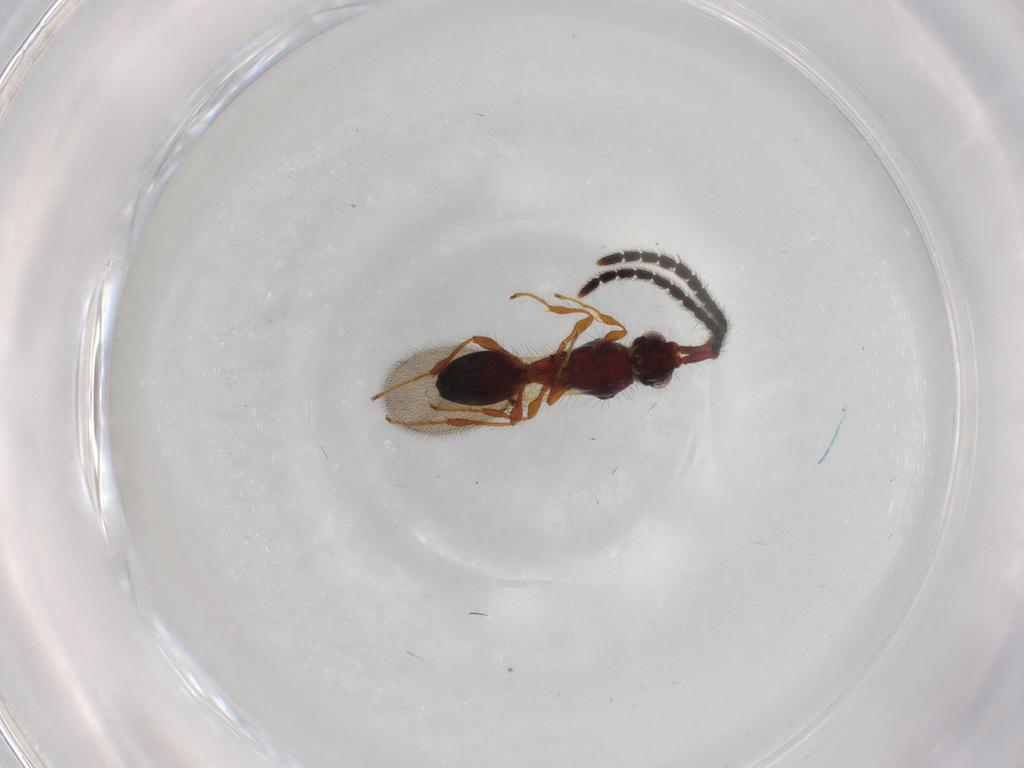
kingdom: Animalia
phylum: Arthropoda
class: Insecta
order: Hymenoptera
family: Diapriidae
